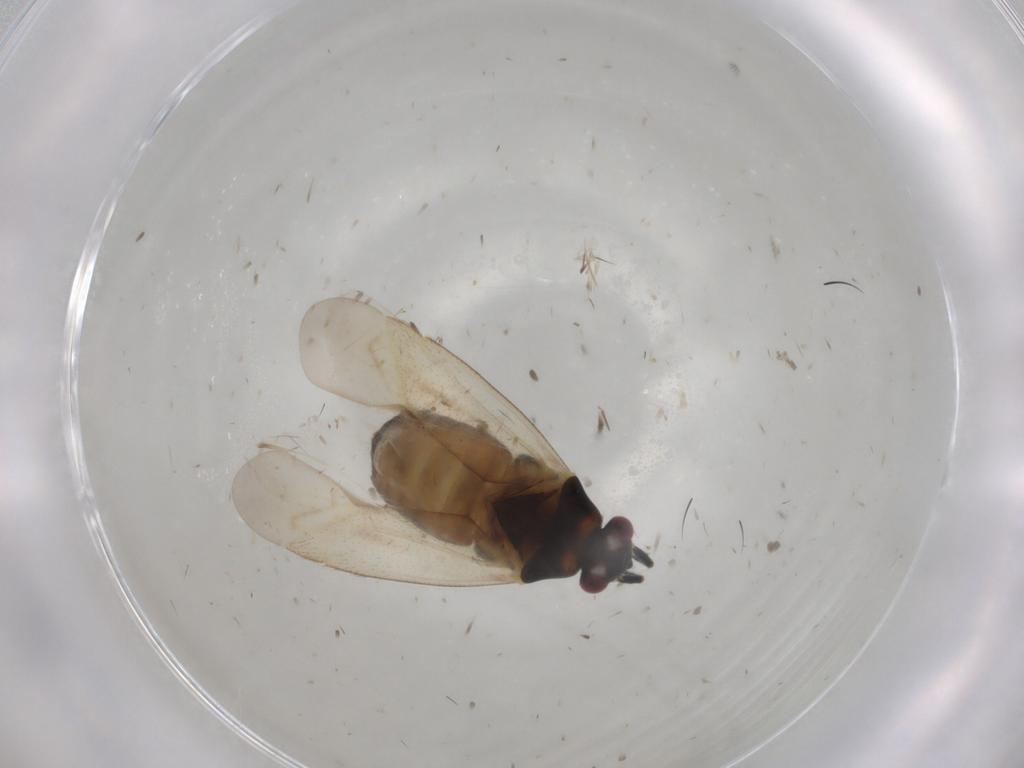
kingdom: Animalia
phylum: Arthropoda
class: Insecta
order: Hemiptera
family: Miridae
